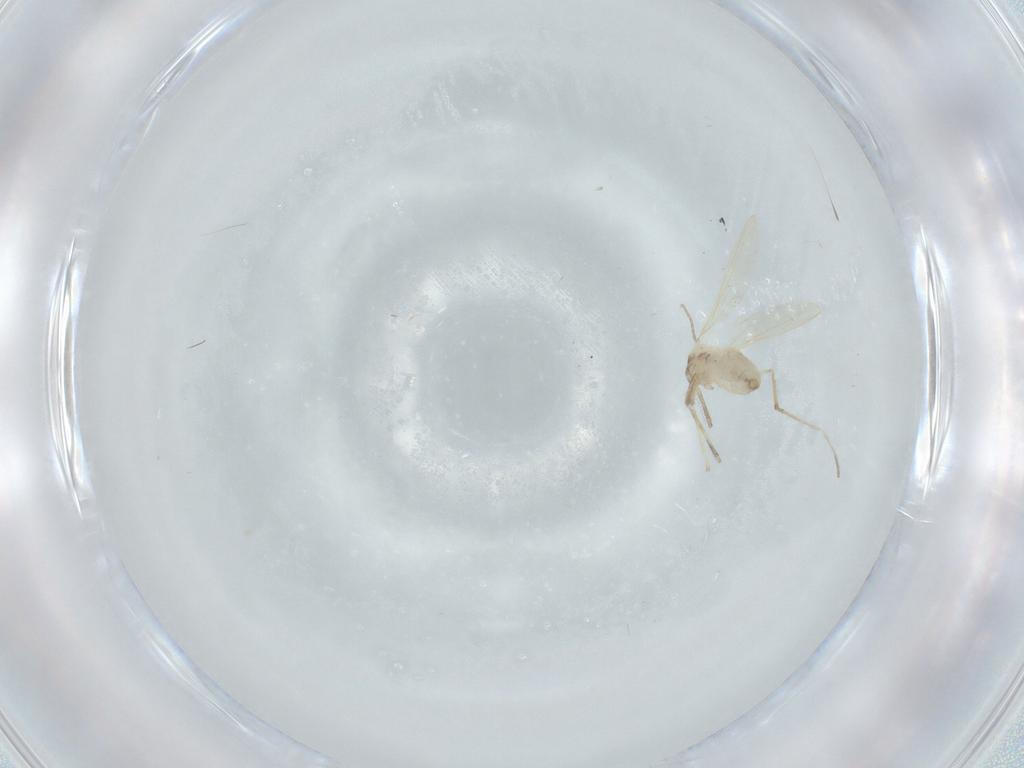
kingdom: Animalia
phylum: Arthropoda
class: Insecta
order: Diptera
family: Cecidomyiidae
